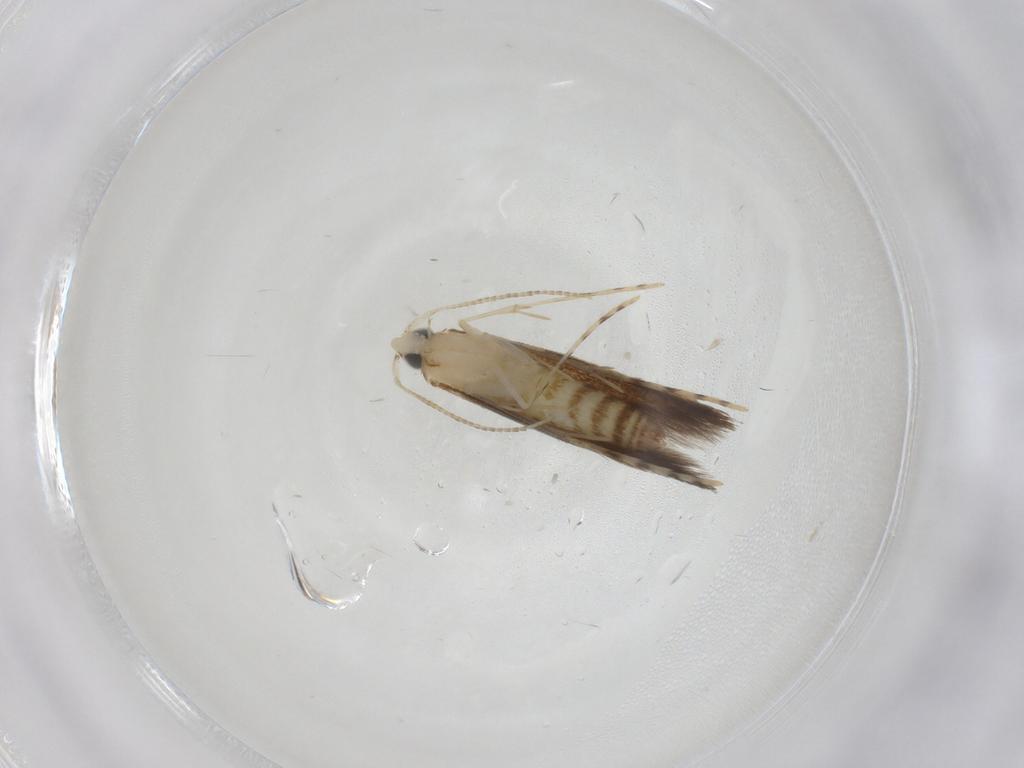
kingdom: Animalia
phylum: Arthropoda
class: Insecta
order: Lepidoptera
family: Lyonetiidae
